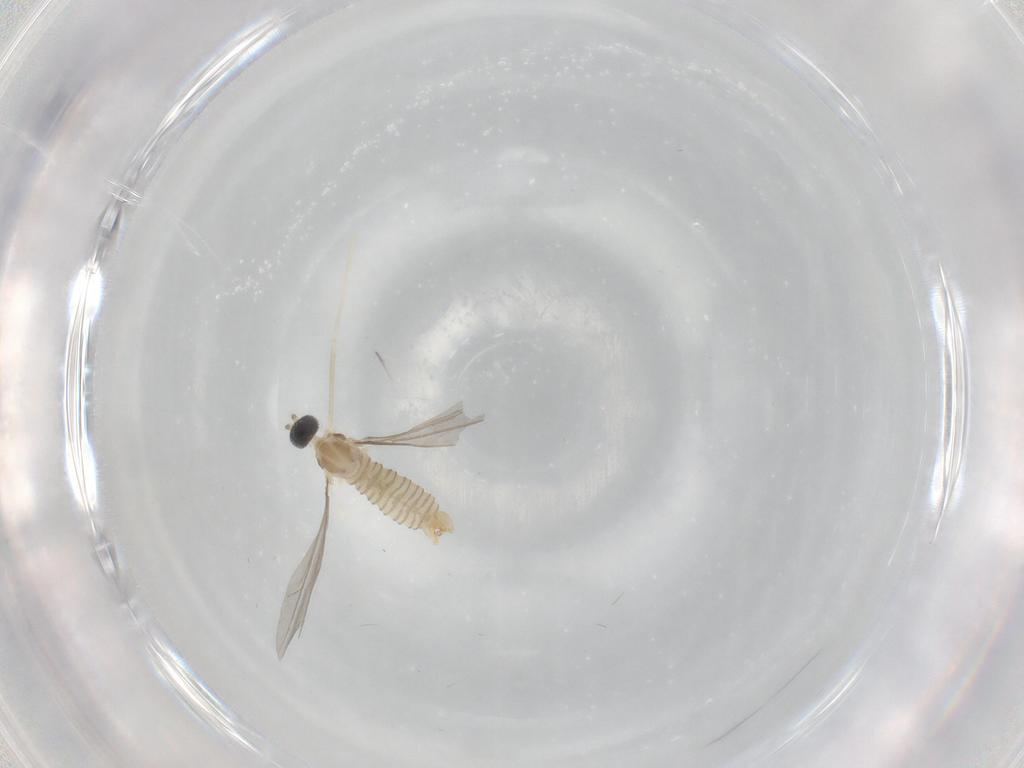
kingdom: Animalia
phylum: Arthropoda
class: Insecta
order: Diptera
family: Cecidomyiidae
